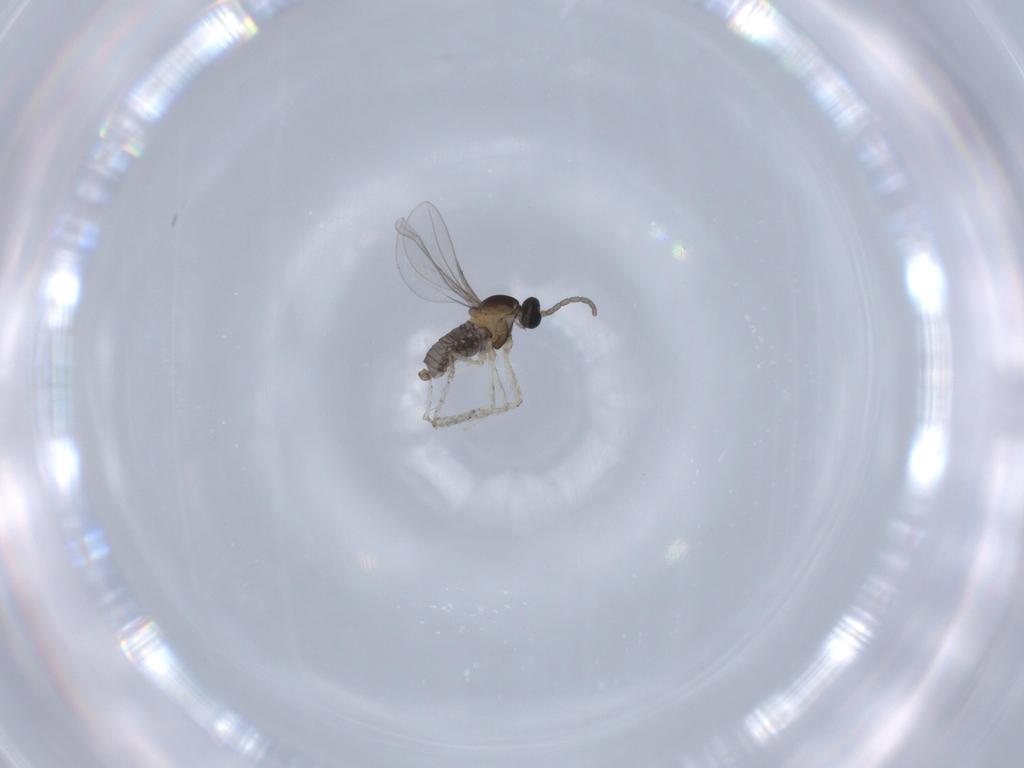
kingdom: Animalia
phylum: Arthropoda
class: Insecta
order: Diptera
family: Cecidomyiidae
